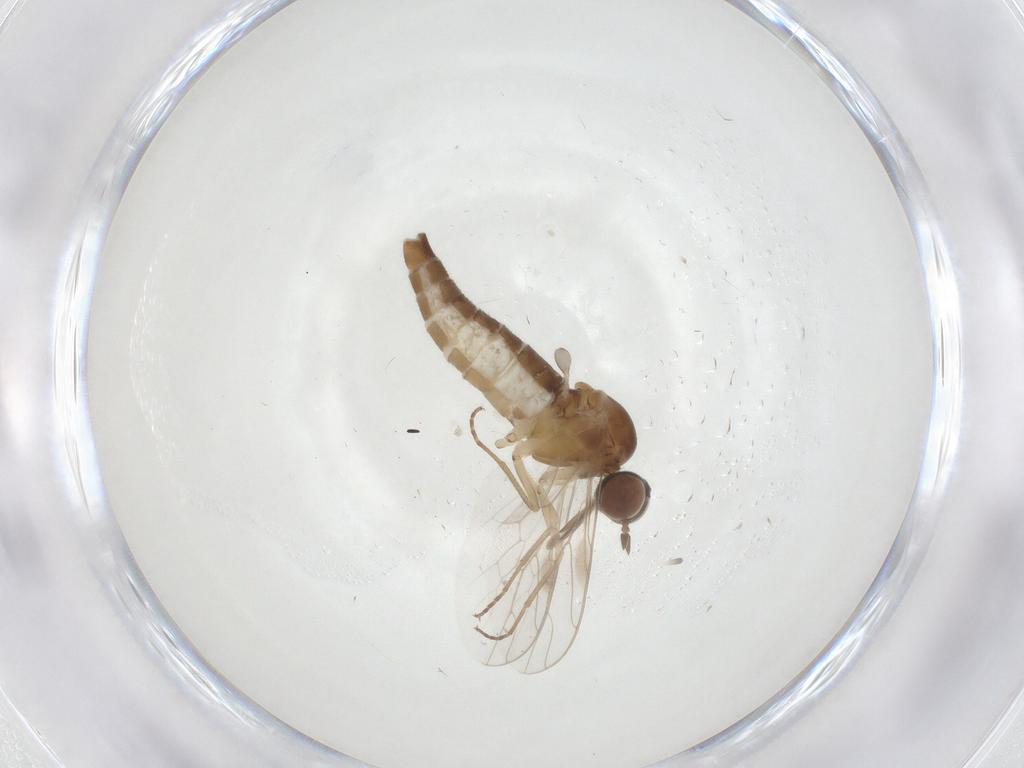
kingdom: Animalia
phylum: Arthropoda
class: Insecta
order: Diptera
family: Scenopinidae
